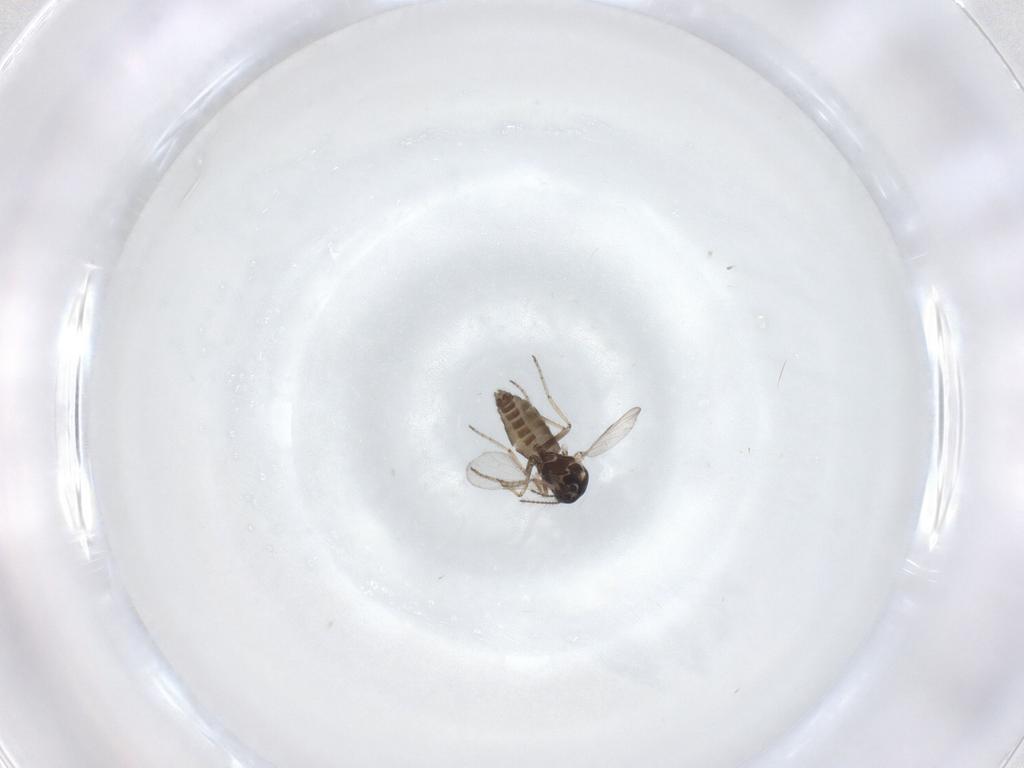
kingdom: Animalia
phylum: Arthropoda
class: Insecta
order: Diptera
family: Ceratopogonidae
